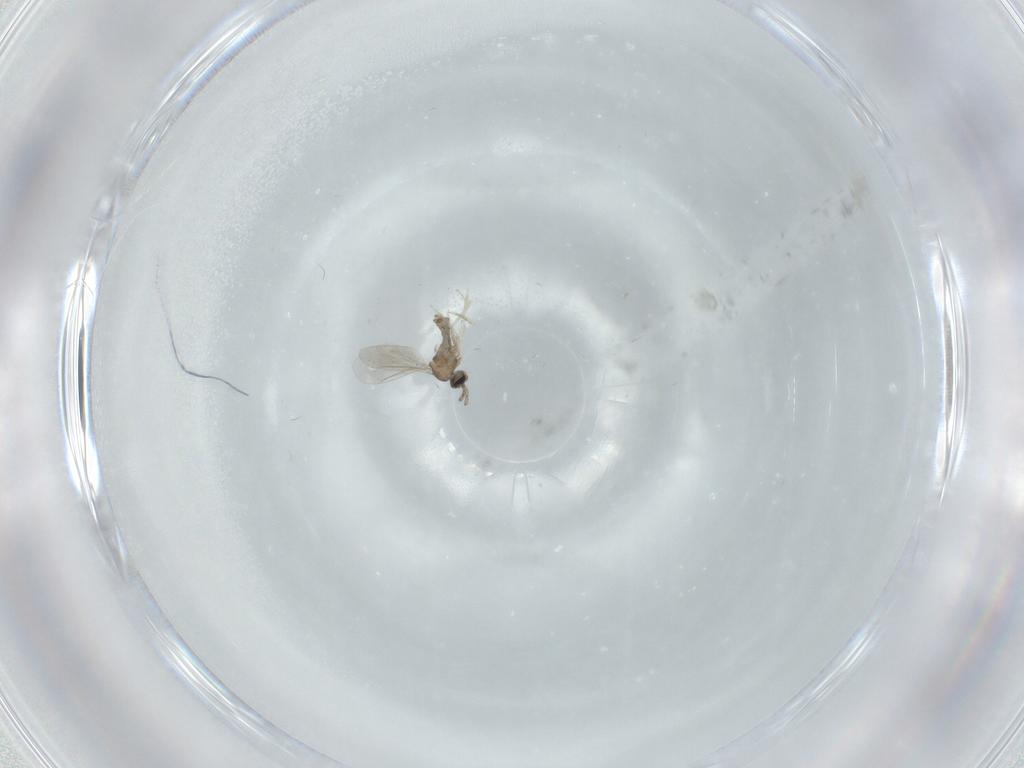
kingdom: Animalia
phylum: Arthropoda
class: Insecta
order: Diptera
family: Cecidomyiidae
